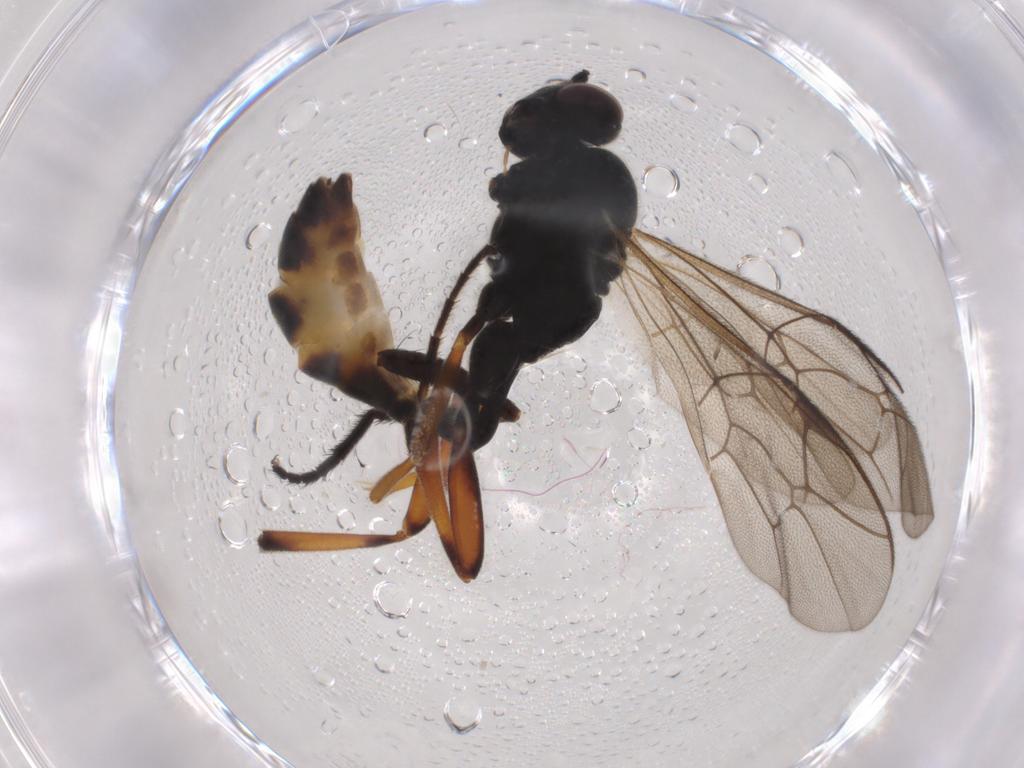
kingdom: Animalia
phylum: Arthropoda
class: Insecta
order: Hymenoptera
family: Ichneumonidae
